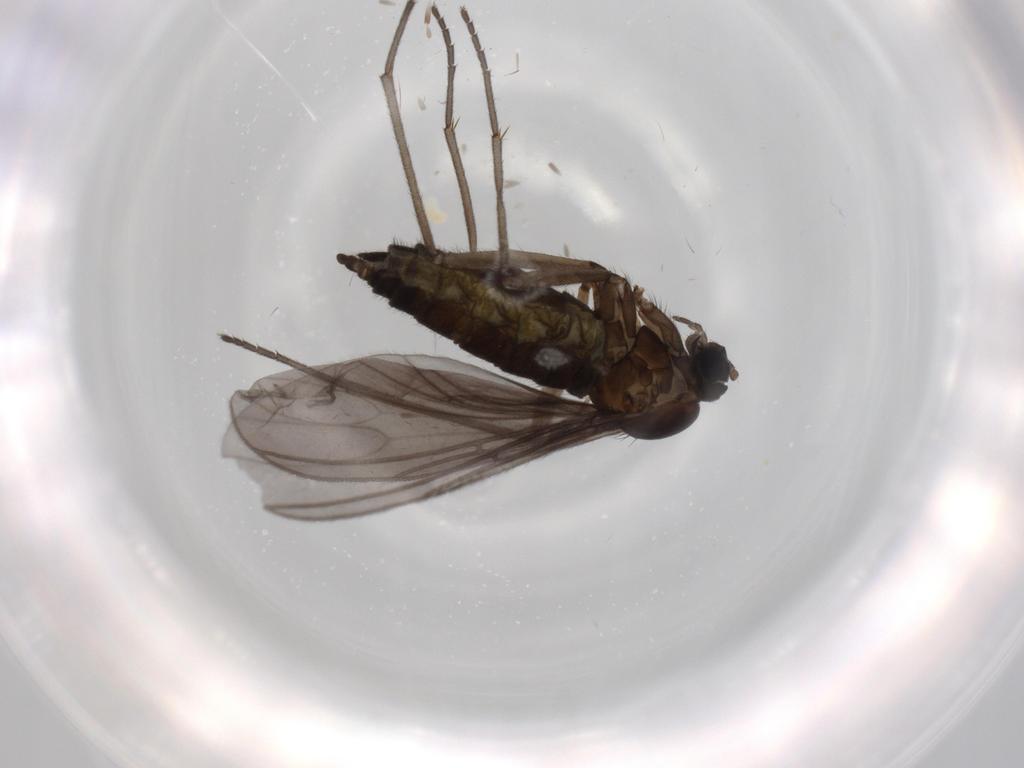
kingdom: Animalia
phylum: Arthropoda
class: Insecta
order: Diptera
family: Sciaridae
